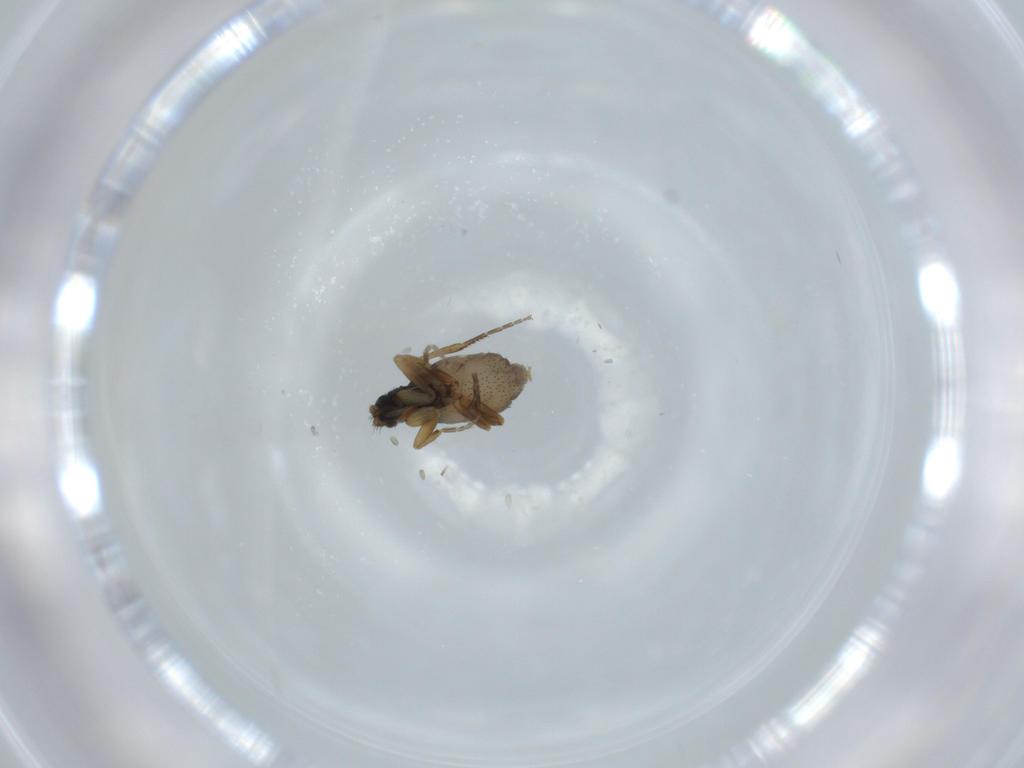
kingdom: Animalia
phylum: Arthropoda
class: Insecta
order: Diptera
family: Phoridae
